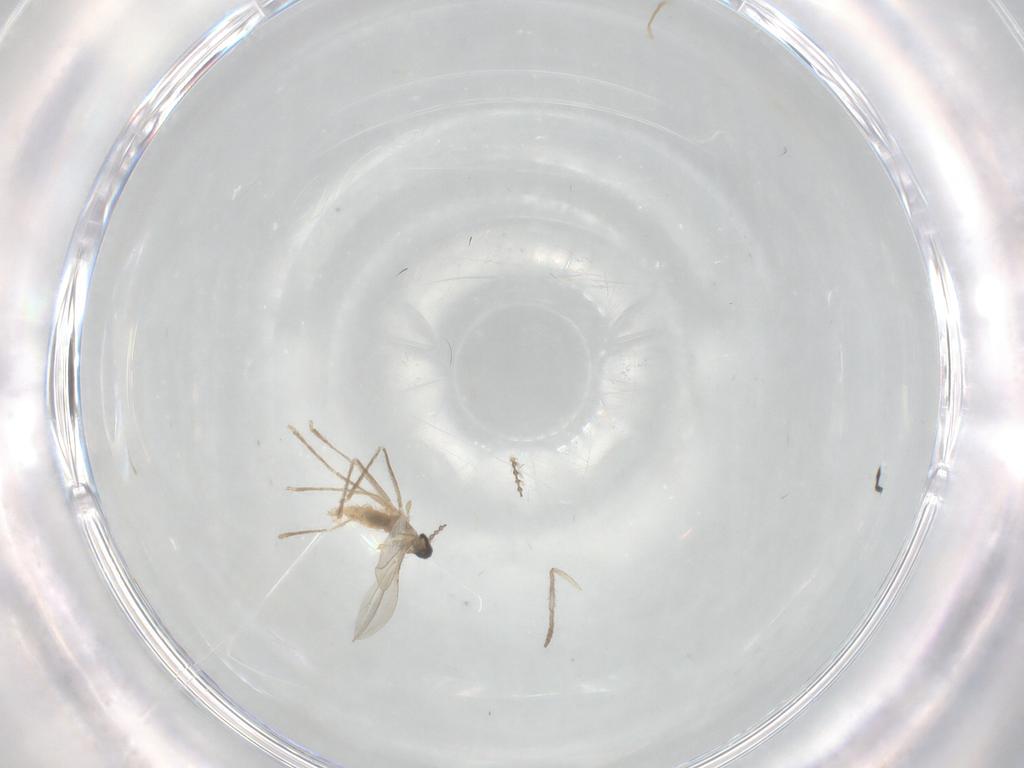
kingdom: Animalia
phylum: Arthropoda
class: Insecta
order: Diptera
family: Cecidomyiidae
